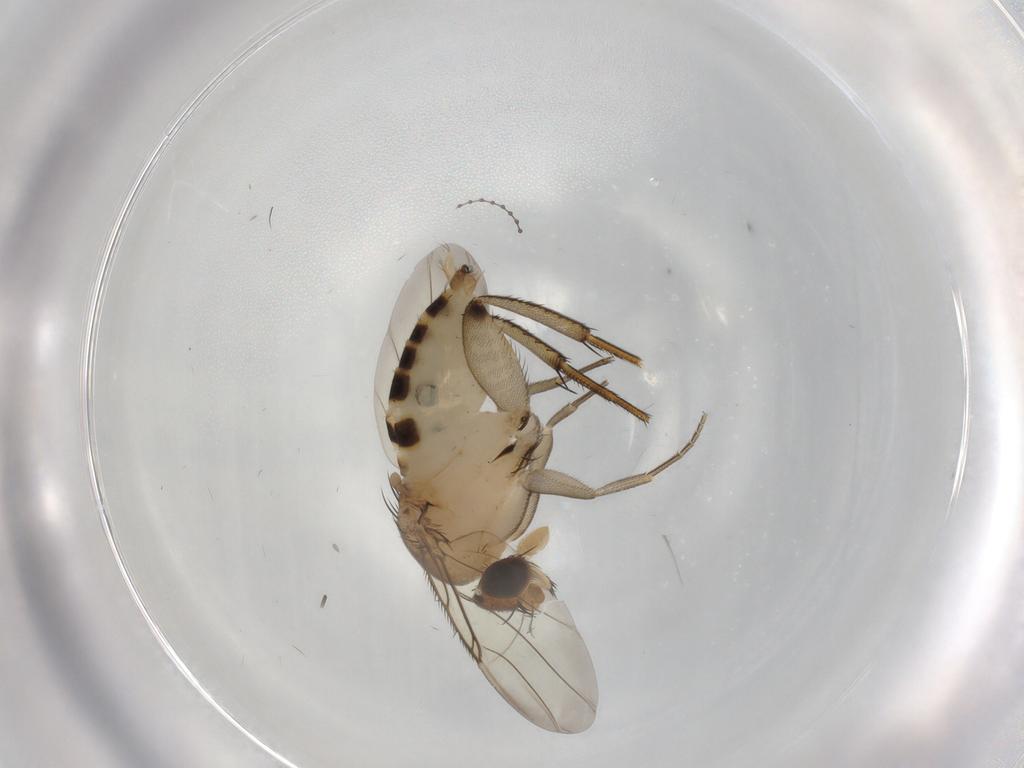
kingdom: Animalia
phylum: Arthropoda
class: Insecta
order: Diptera
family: Phoridae
